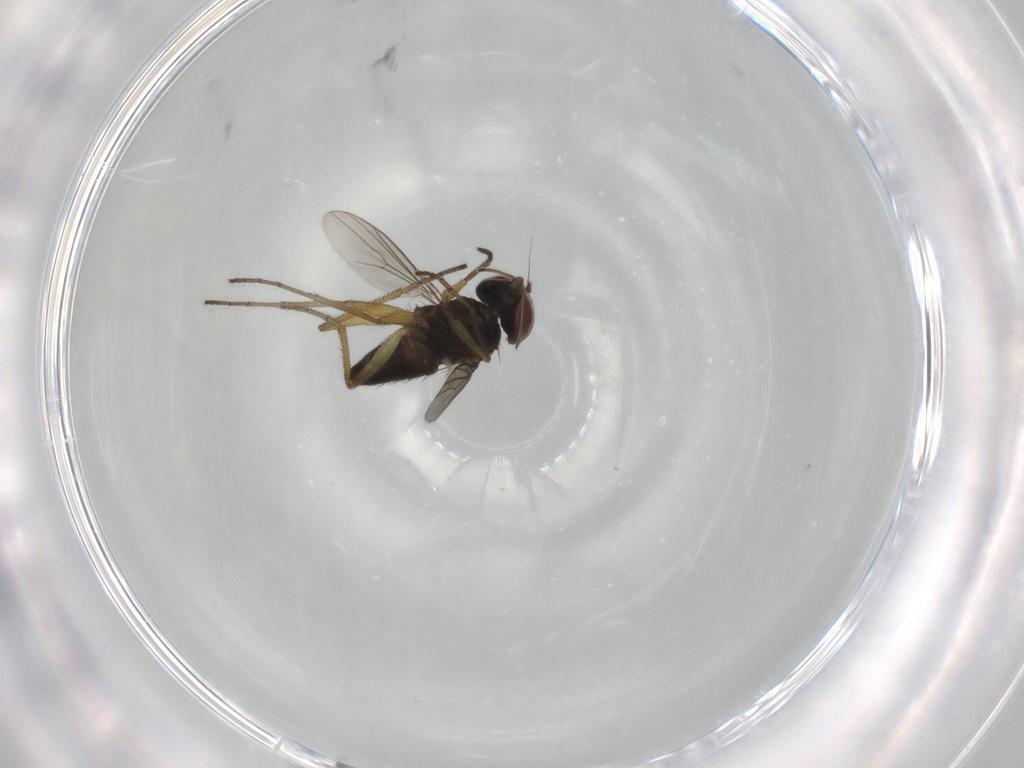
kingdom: Animalia
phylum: Arthropoda
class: Insecta
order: Diptera
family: Dolichopodidae
